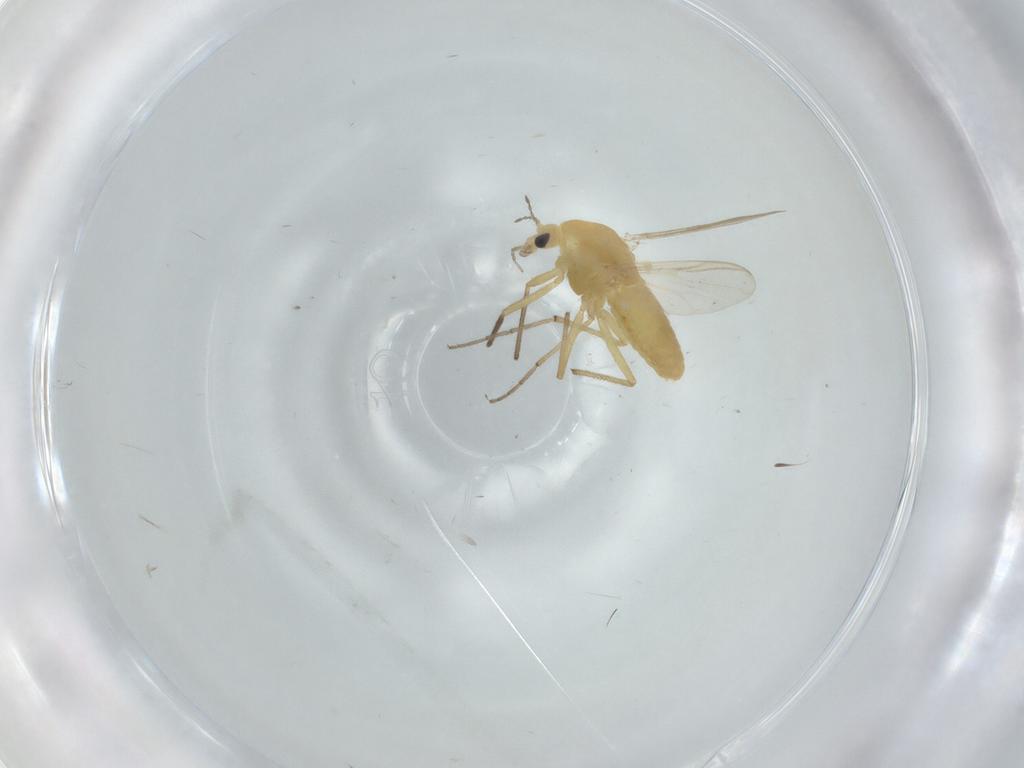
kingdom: Animalia
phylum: Arthropoda
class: Insecta
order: Diptera
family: Chironomidae
